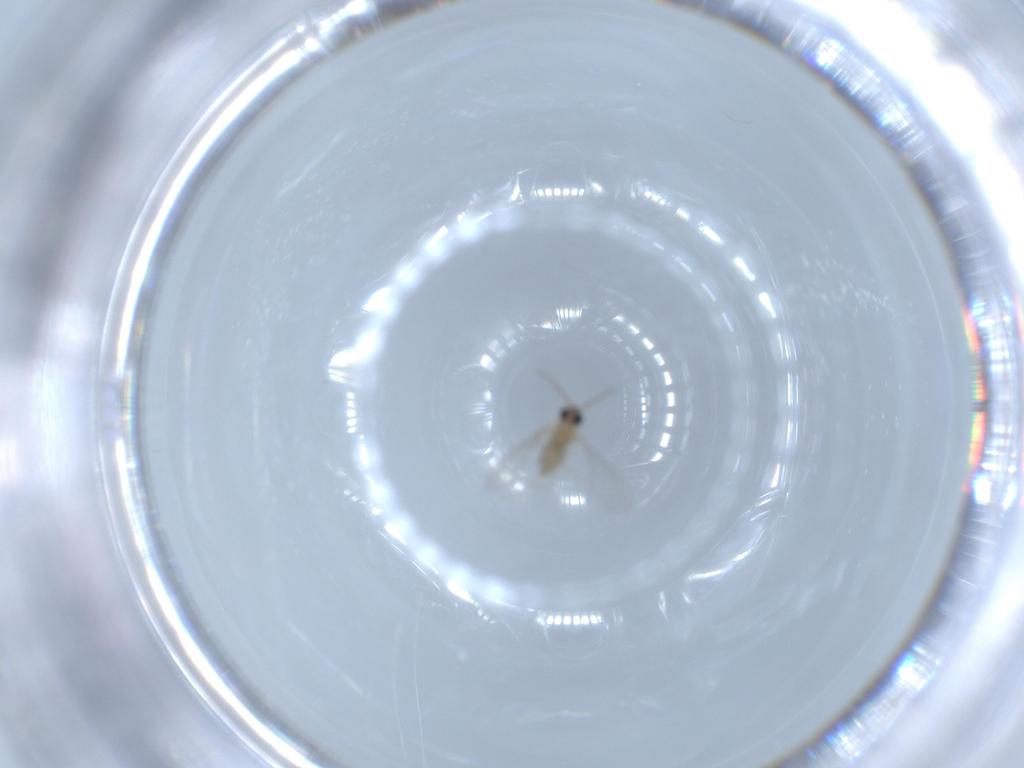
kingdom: Animalia
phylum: Arthropoda
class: Insecta
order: Diptera
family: Cecidomyiidae
